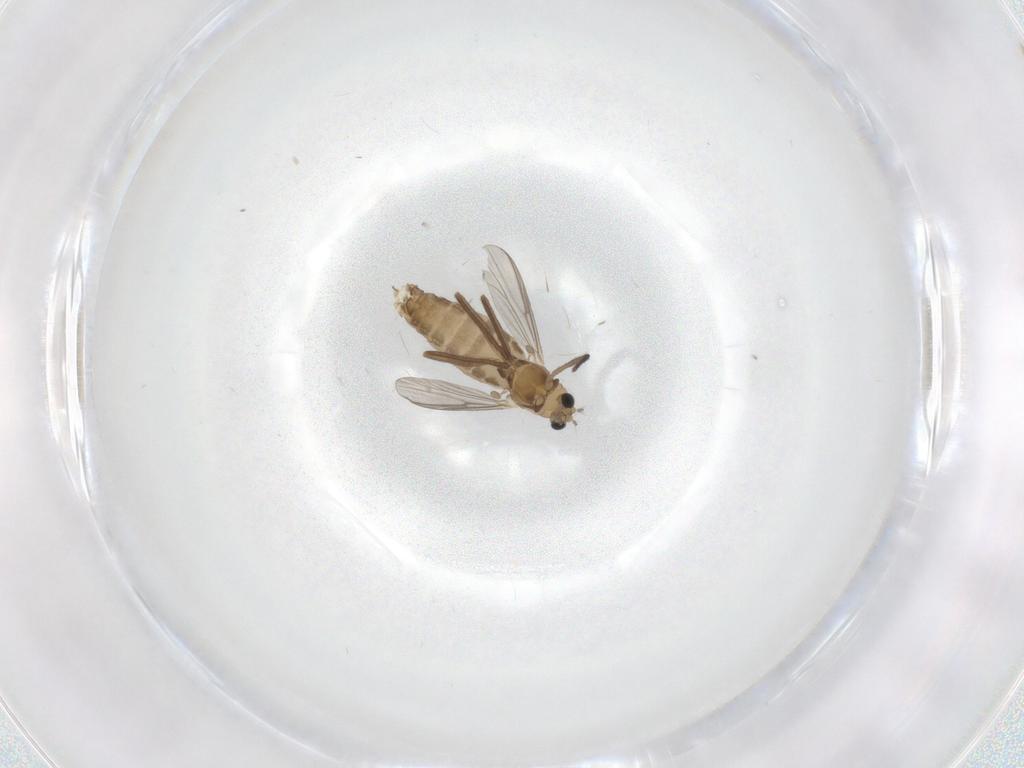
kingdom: Animalia
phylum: Arthropoda
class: Insecta
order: Diptera
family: Chironomidae
